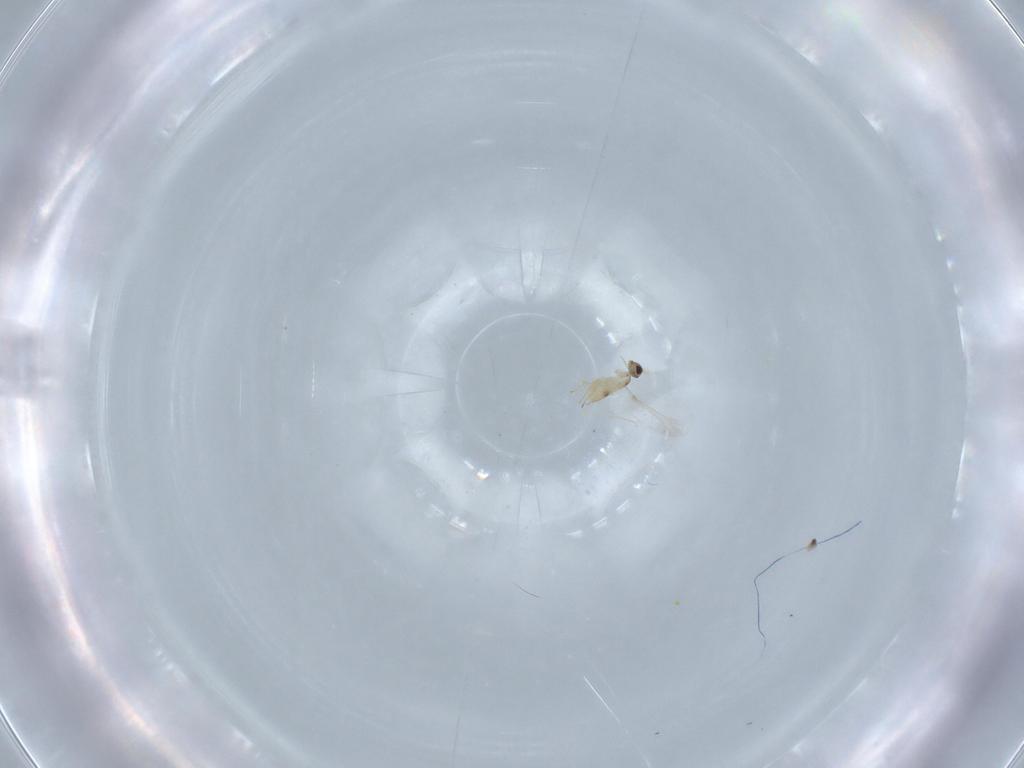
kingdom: Animalia
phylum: Arthropoda
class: Insecta
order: Hymenoptera
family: Mymaridae
